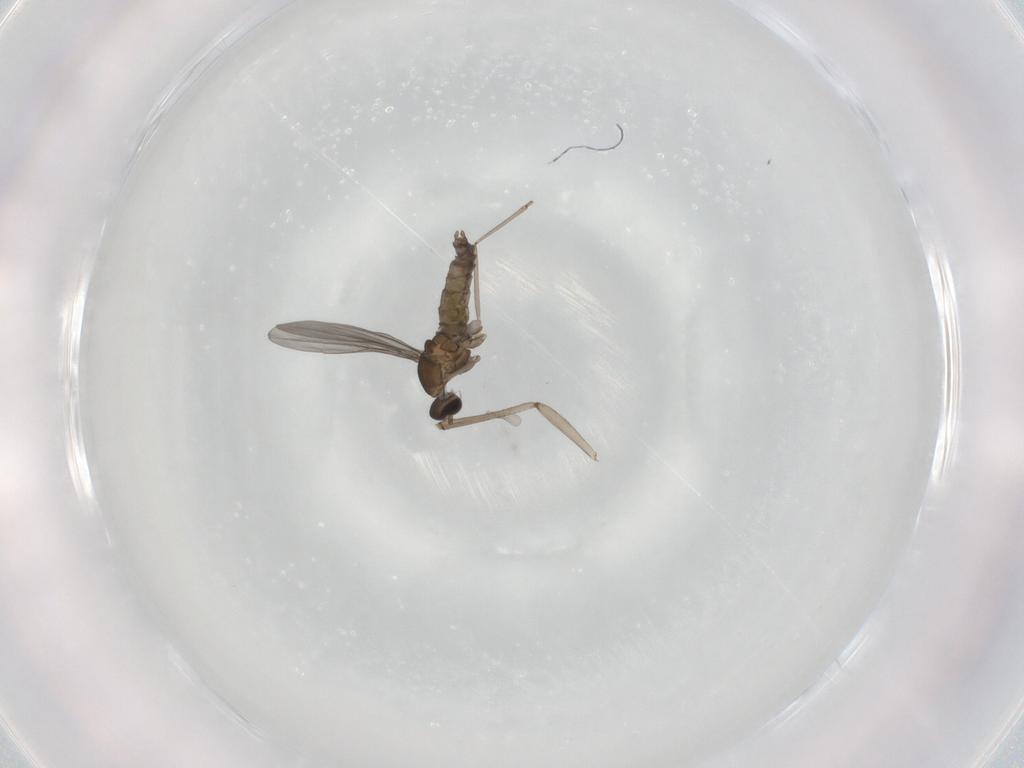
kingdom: Animalia
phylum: Arthropoda
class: Insecta
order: Diptera
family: Cecidomyiidae
